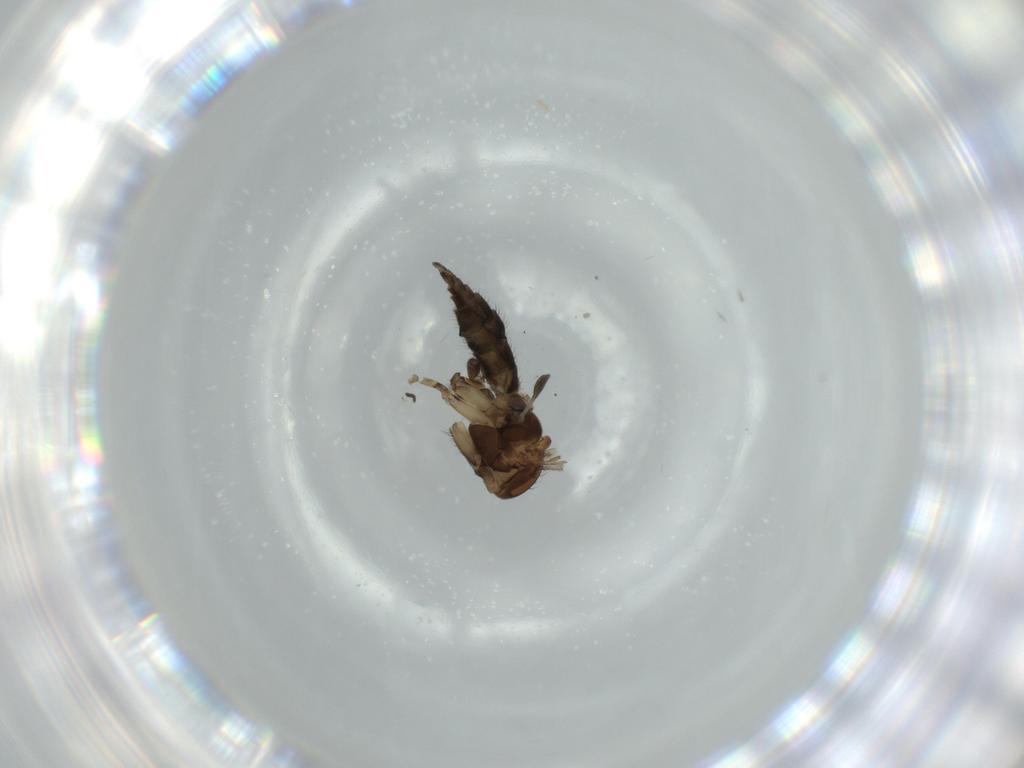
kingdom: Animalia
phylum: Arthropoda
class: Insecta
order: Diptera
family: Sciaridae
